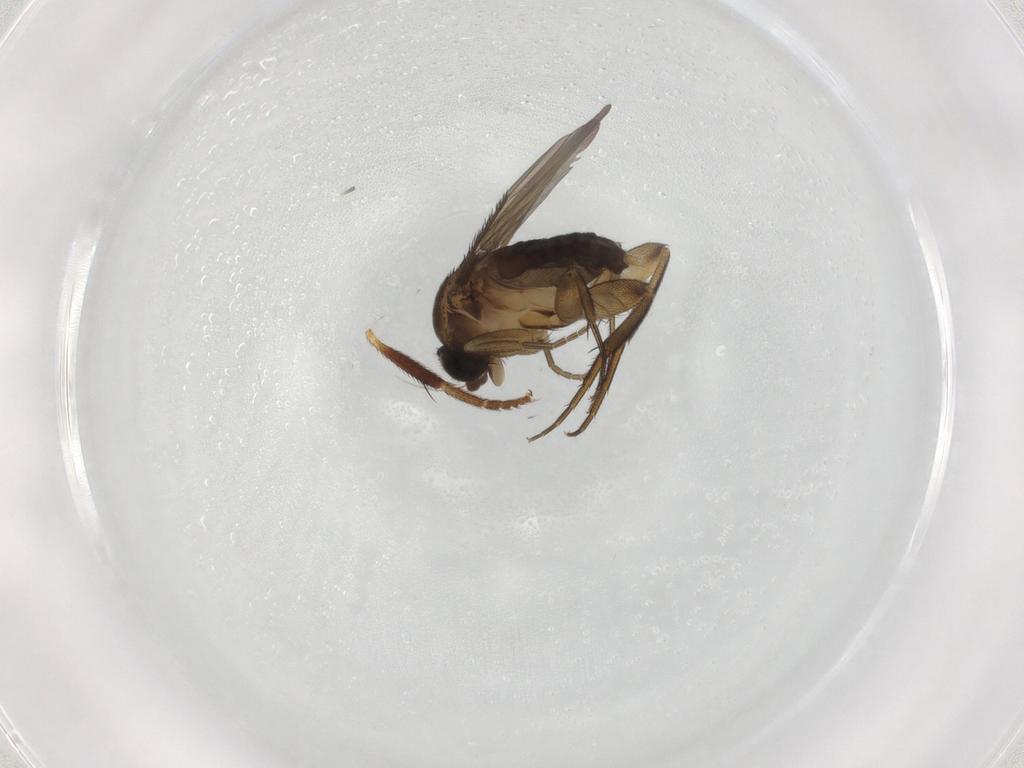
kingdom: Animalia
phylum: Arthropoda
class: Insecta
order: Diptera
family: Phoridae
